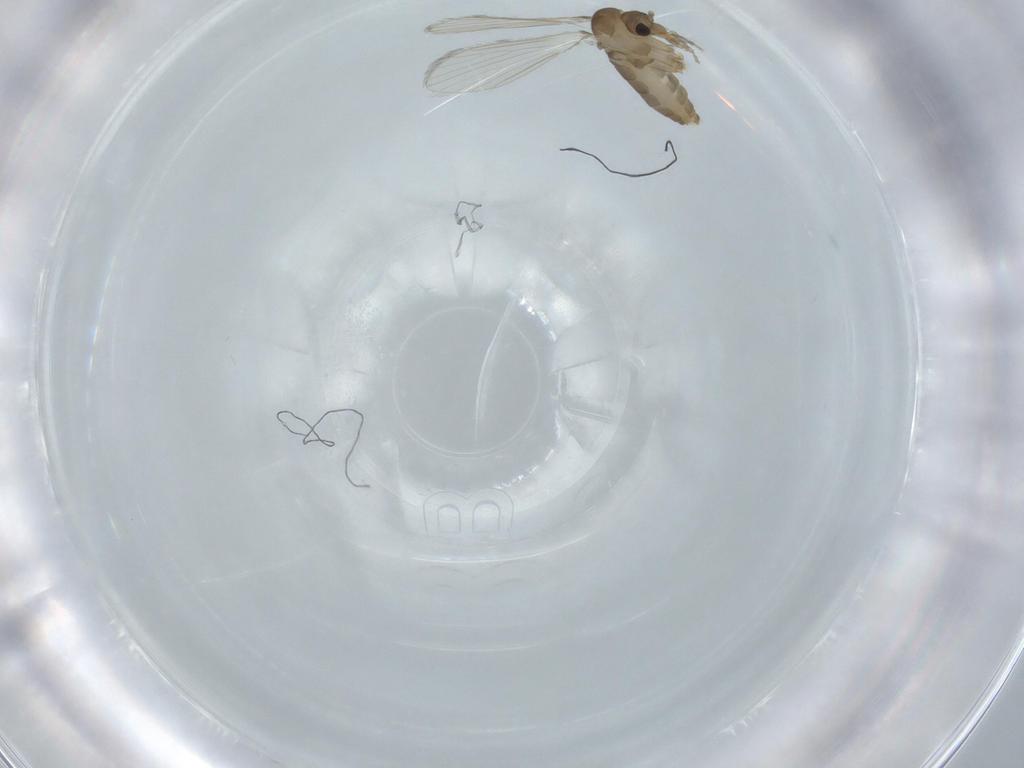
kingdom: Animalia
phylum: Arthropoda
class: Insecta
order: Diptera
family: Psychodidae
